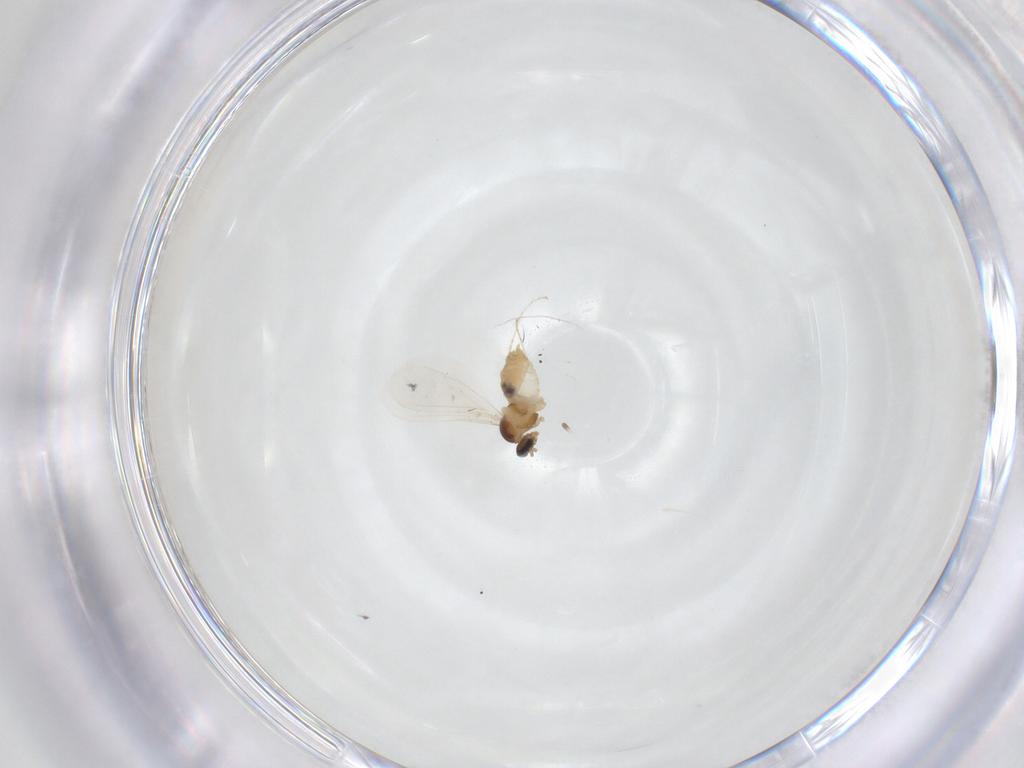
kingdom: Animalia
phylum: Arthropoda
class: Insecta
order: Diptera
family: Cecidomyiidae
